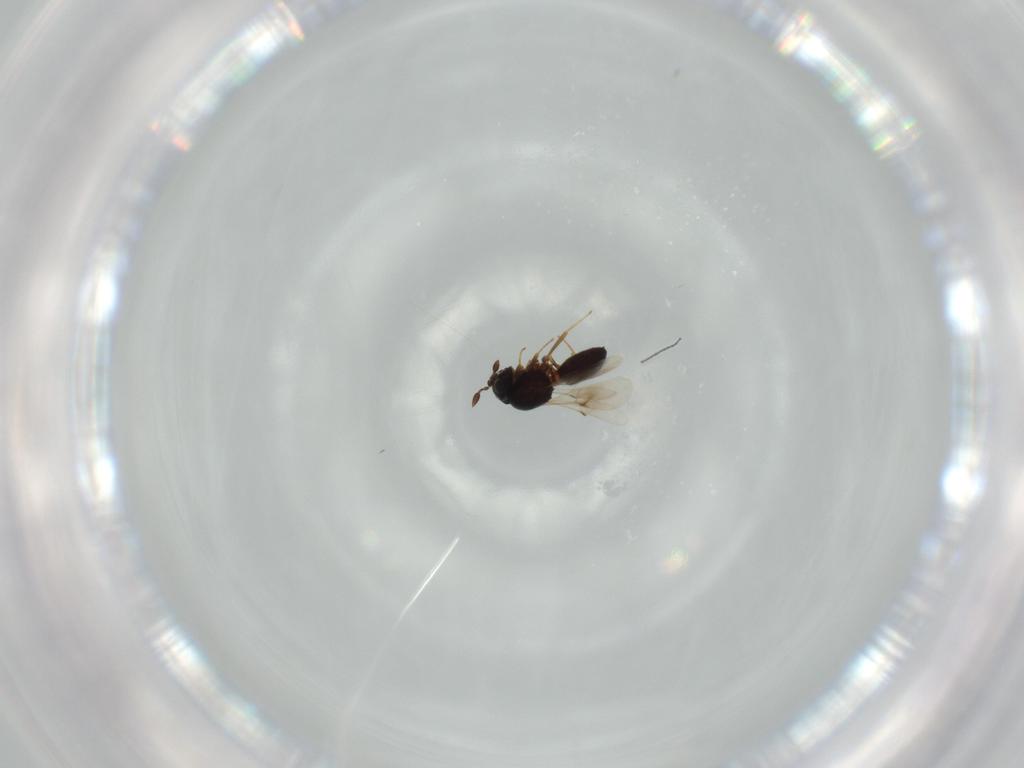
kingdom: Animalia
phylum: Arthropoda
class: Arachnida
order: Araneae
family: Pholcidae
